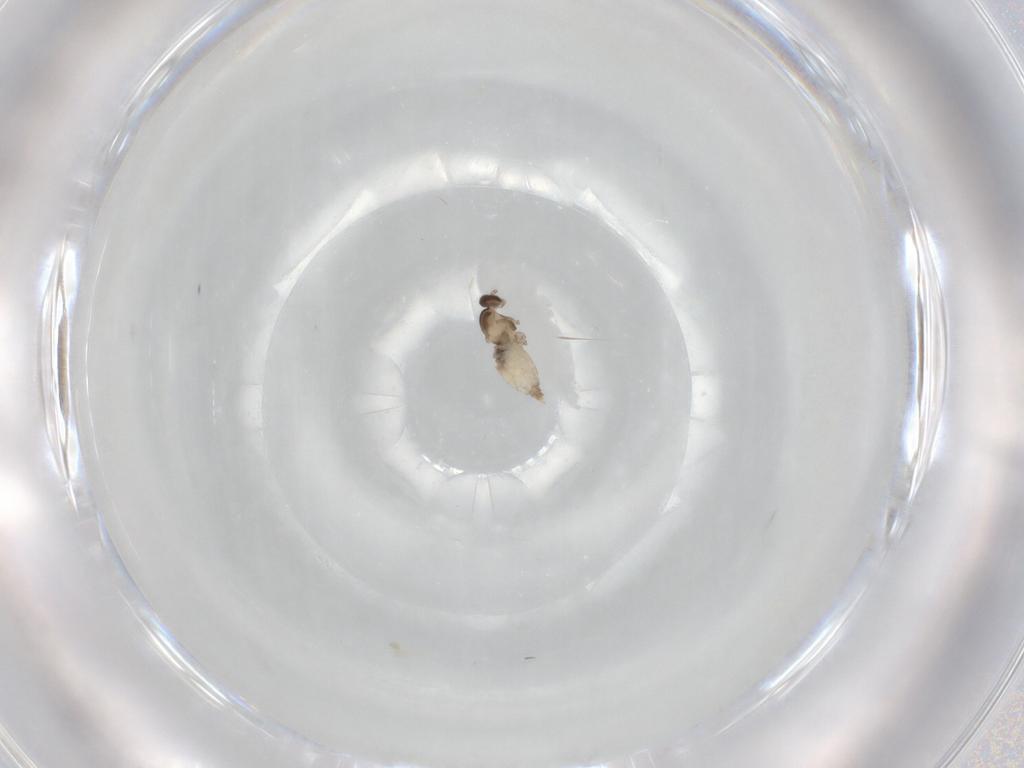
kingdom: Animalia
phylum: Arthropoda
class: Insecta
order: Diptera
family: Cecidomyiidae
